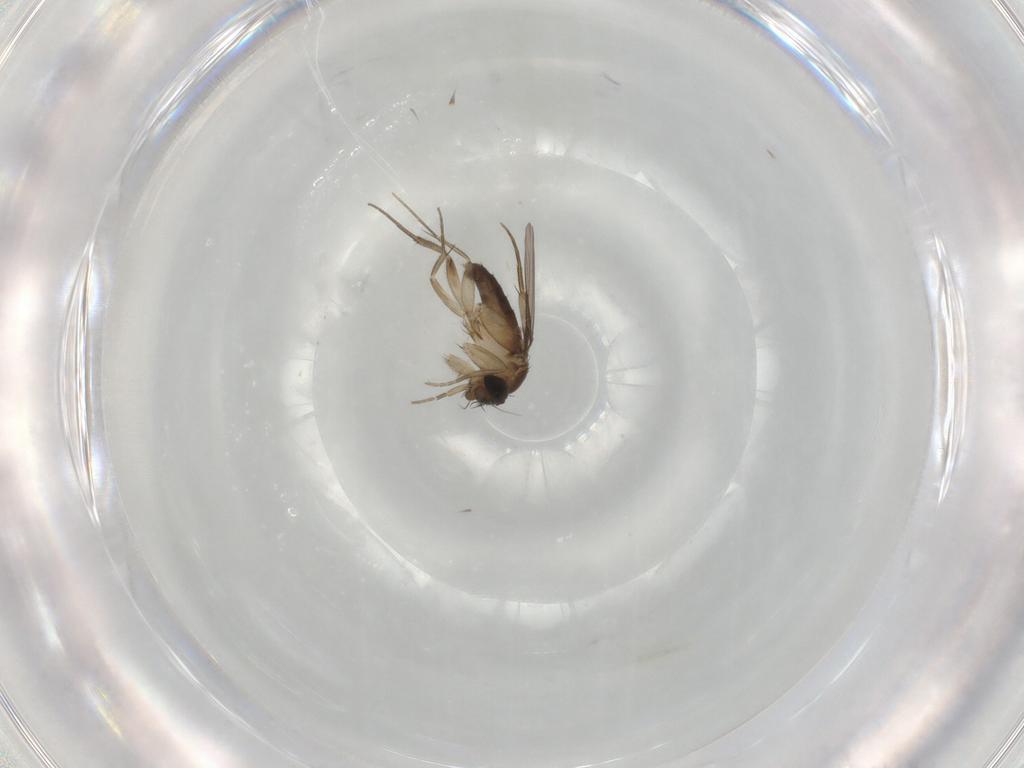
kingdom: Animalia
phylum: Arthropoda
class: Insecta
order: Diptera
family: Phoridae
